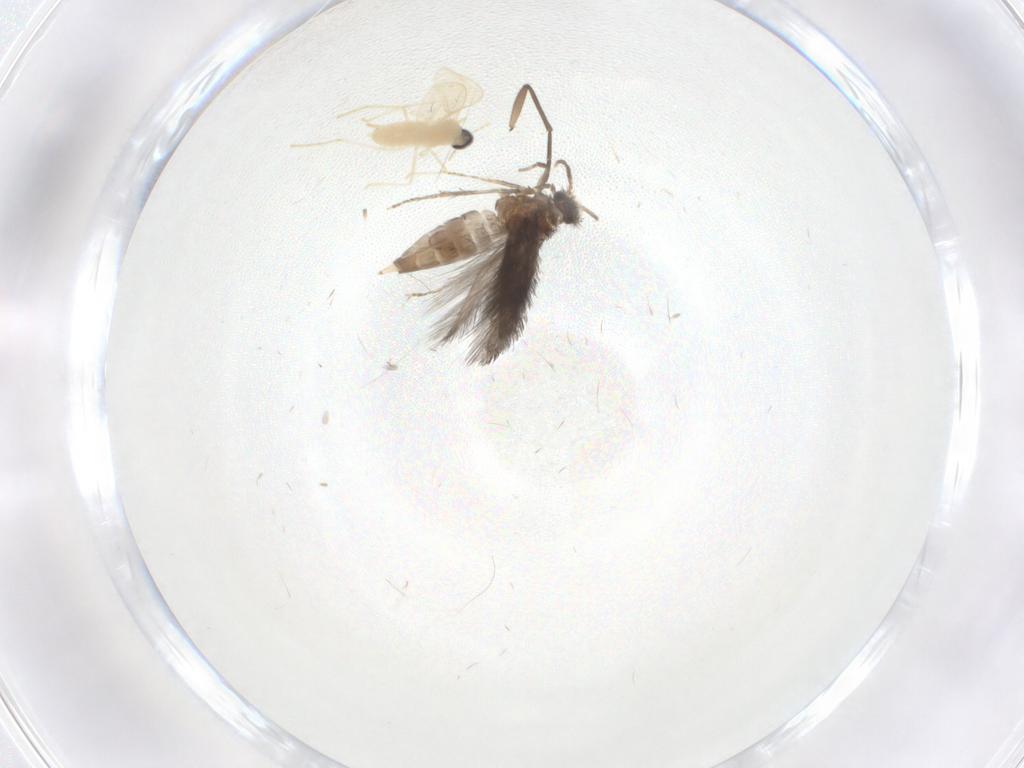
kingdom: Animalia
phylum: Arthropoda
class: Insecta
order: Trichoptera
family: Hydroptilidae
